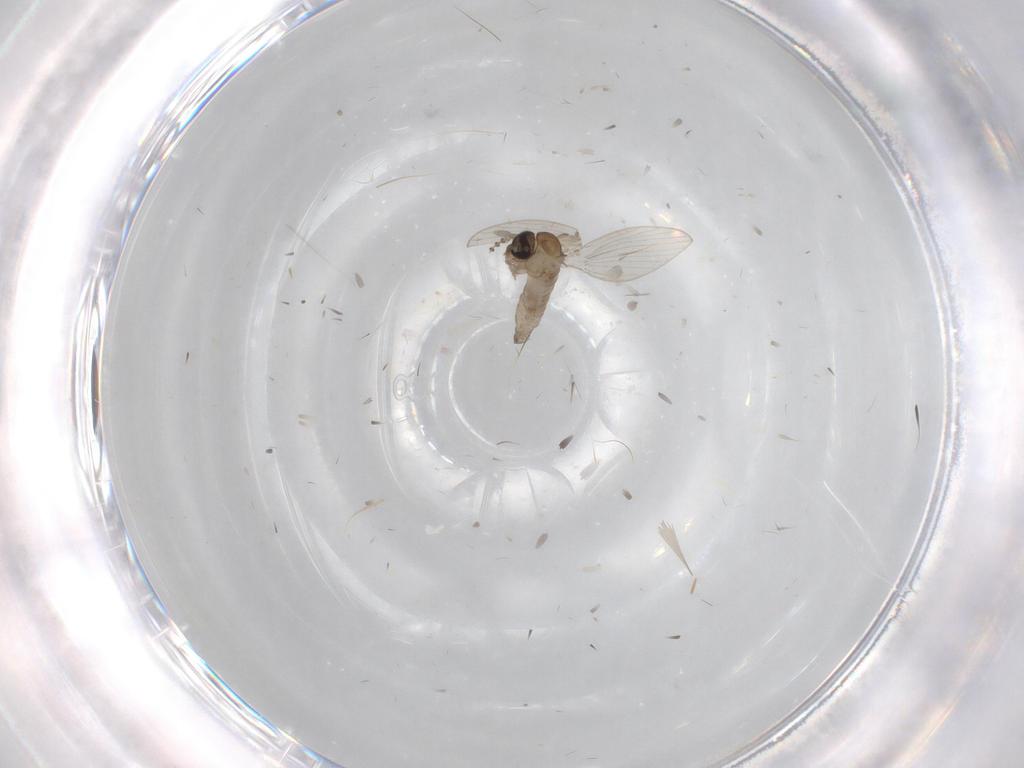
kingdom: Animalia
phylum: Arthropoda
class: Insecta
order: Diptera
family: Psychodidae
